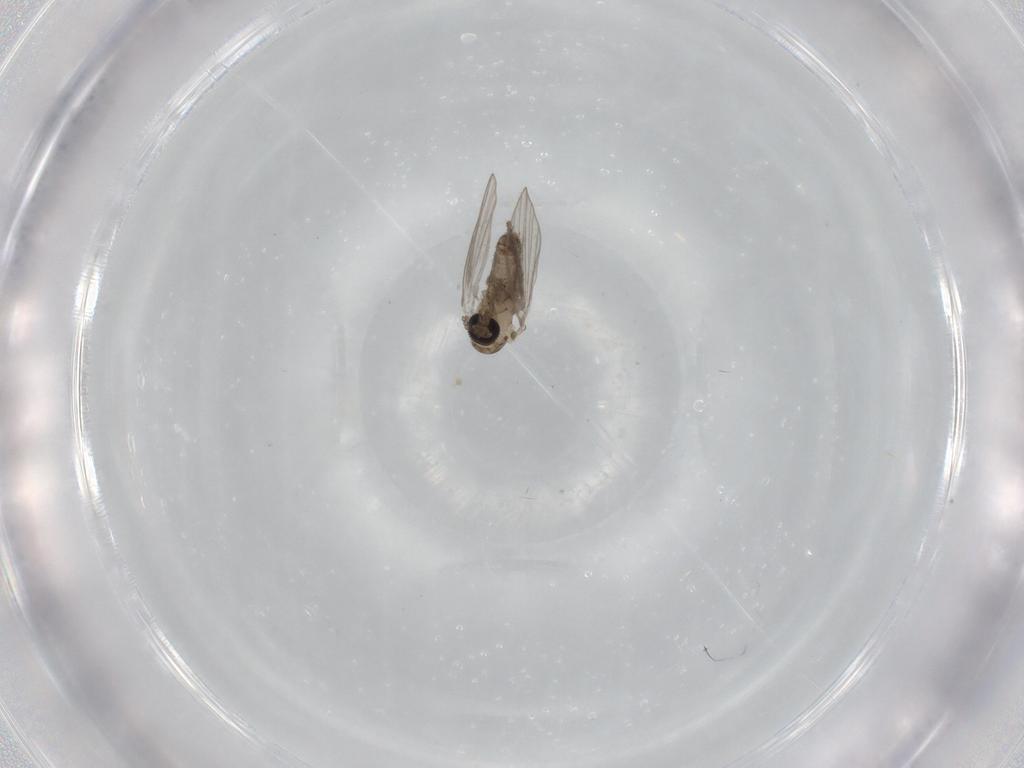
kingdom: Animalia
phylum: Arthropoda
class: Insecta
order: Diptera
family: Psychodidae
